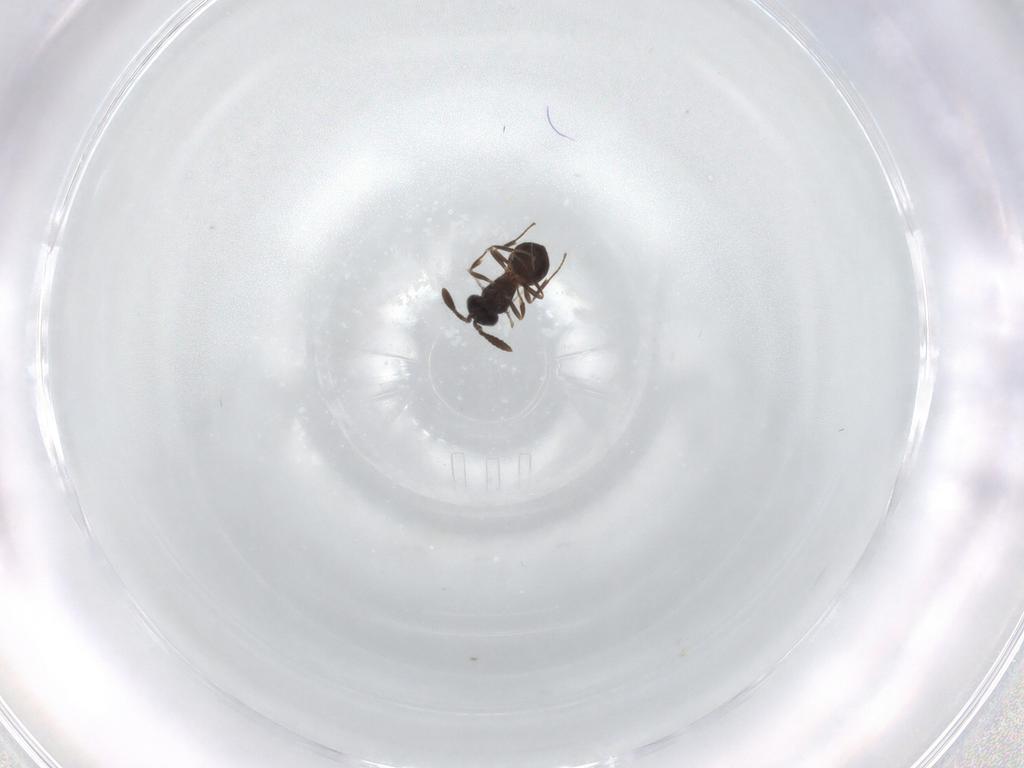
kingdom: Animalia
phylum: Arthropoda
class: Insecta
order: Hymenoptera
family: Scelionidae
